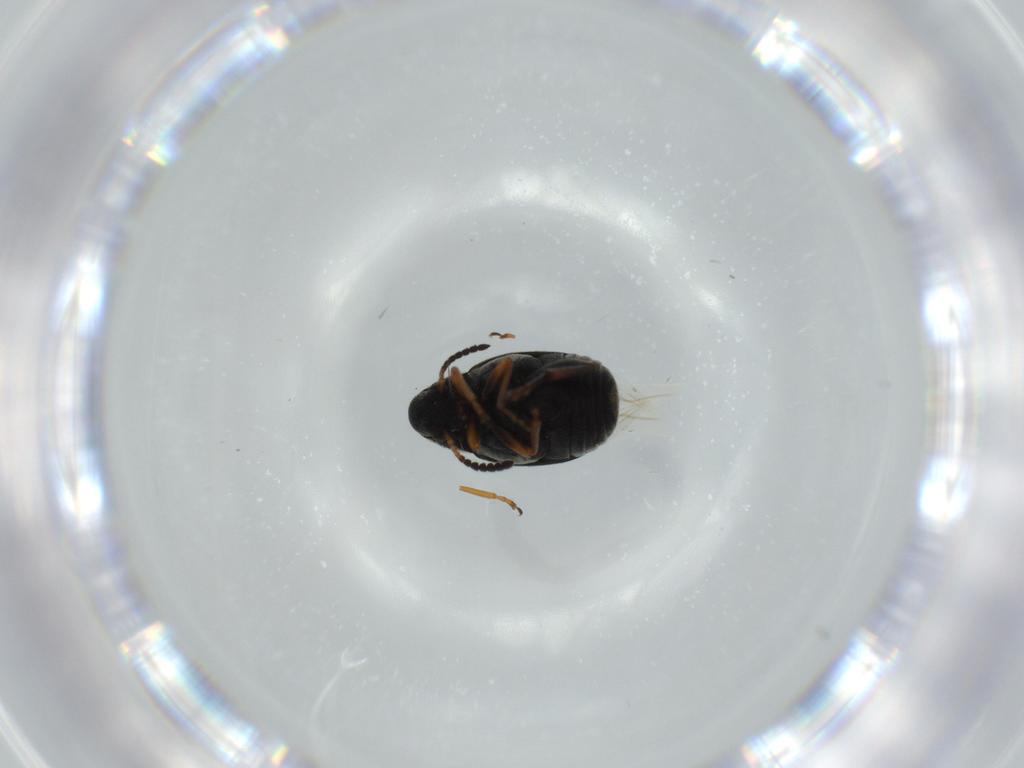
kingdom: Animalia
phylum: Arthropoda
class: Insecta
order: Coleoptera
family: Chrysomelidae
